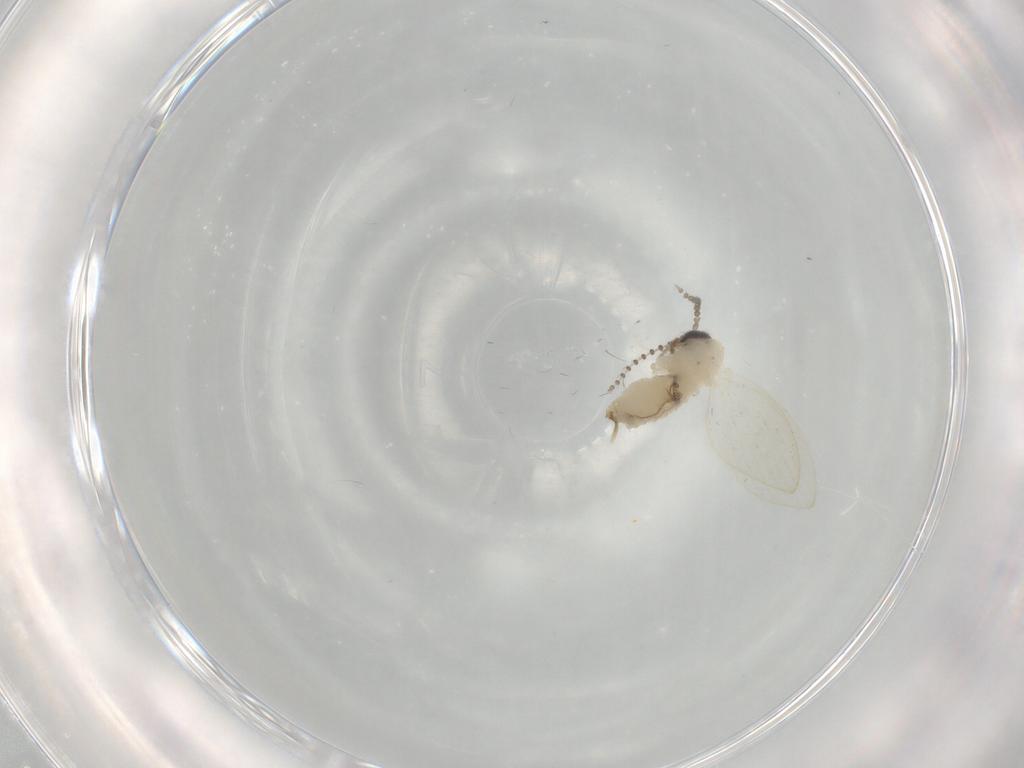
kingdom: Animalia
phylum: Arthropoda
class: Insecta
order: Diptera
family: Psychodidae
